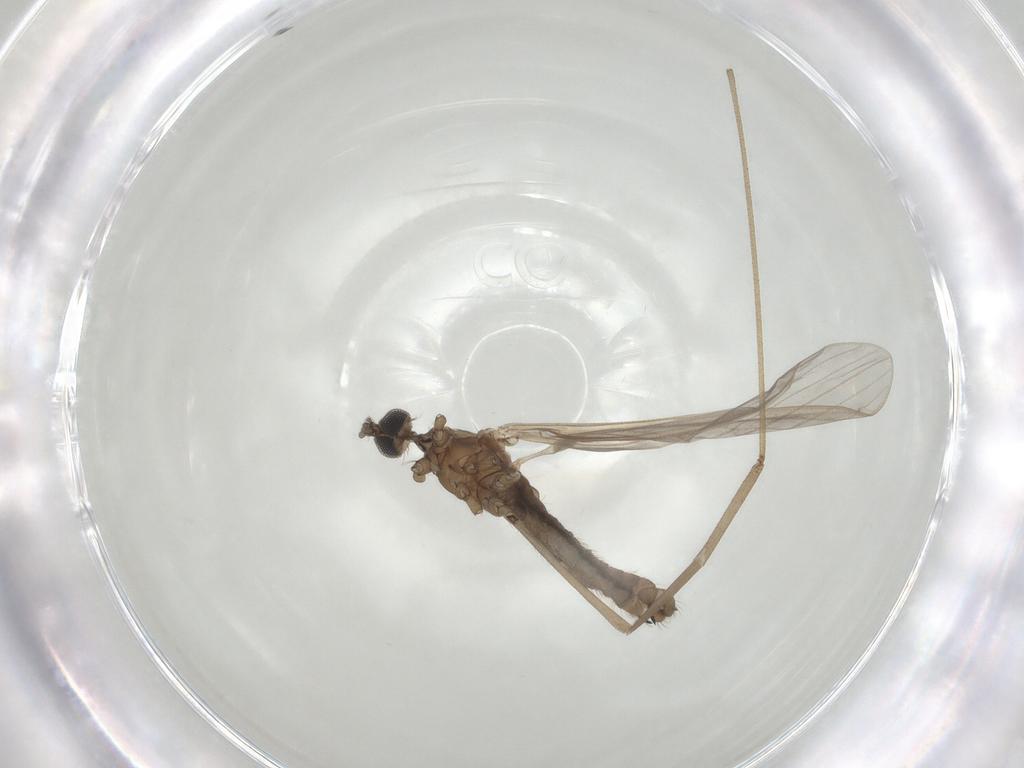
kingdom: Animalia
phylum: Arthropoda
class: Insecta
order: Diptera
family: Limoniidae
